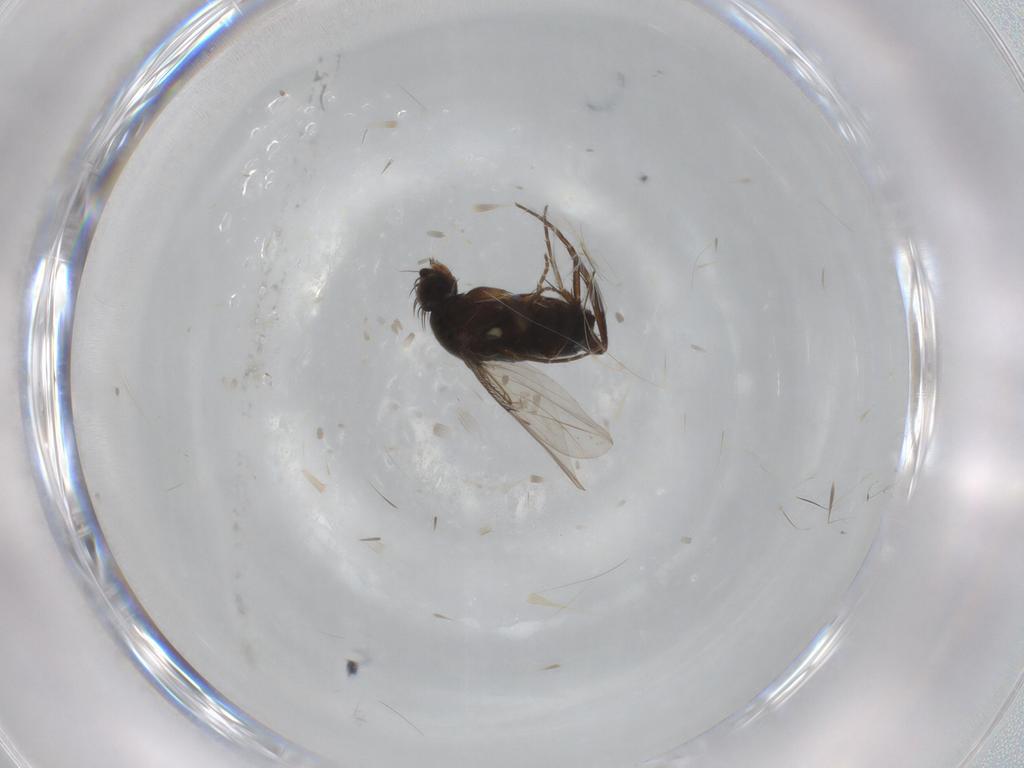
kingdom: Animalia
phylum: Arthropoda
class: Insecta
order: Diptera
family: Phoridae
